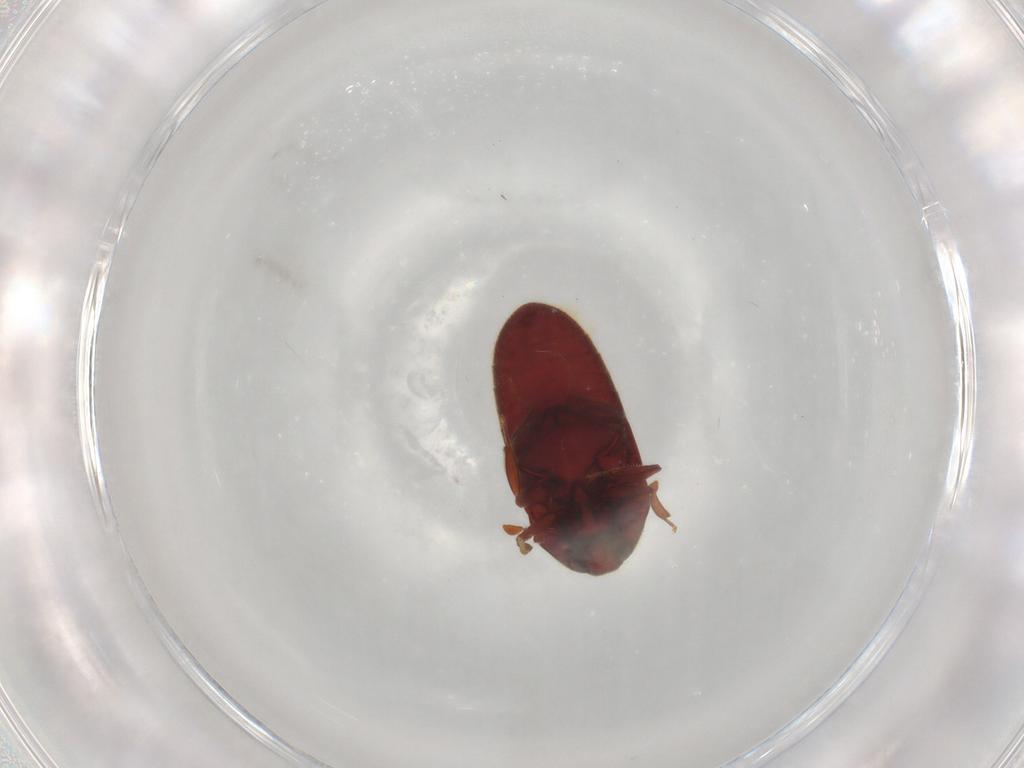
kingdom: Animalia
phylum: Arthropoda
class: Insecta
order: Coleoptera
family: Throscidae
